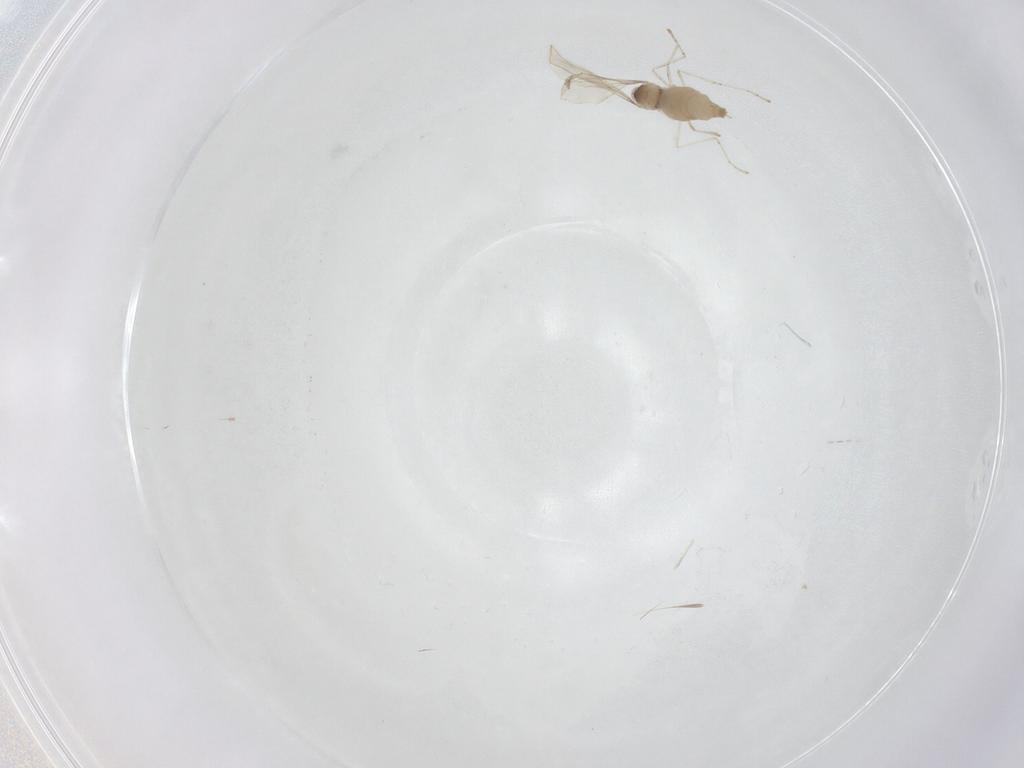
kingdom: Animalia
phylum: Arthropoda
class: Insecta
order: Diptera
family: Cecidomyiidae
